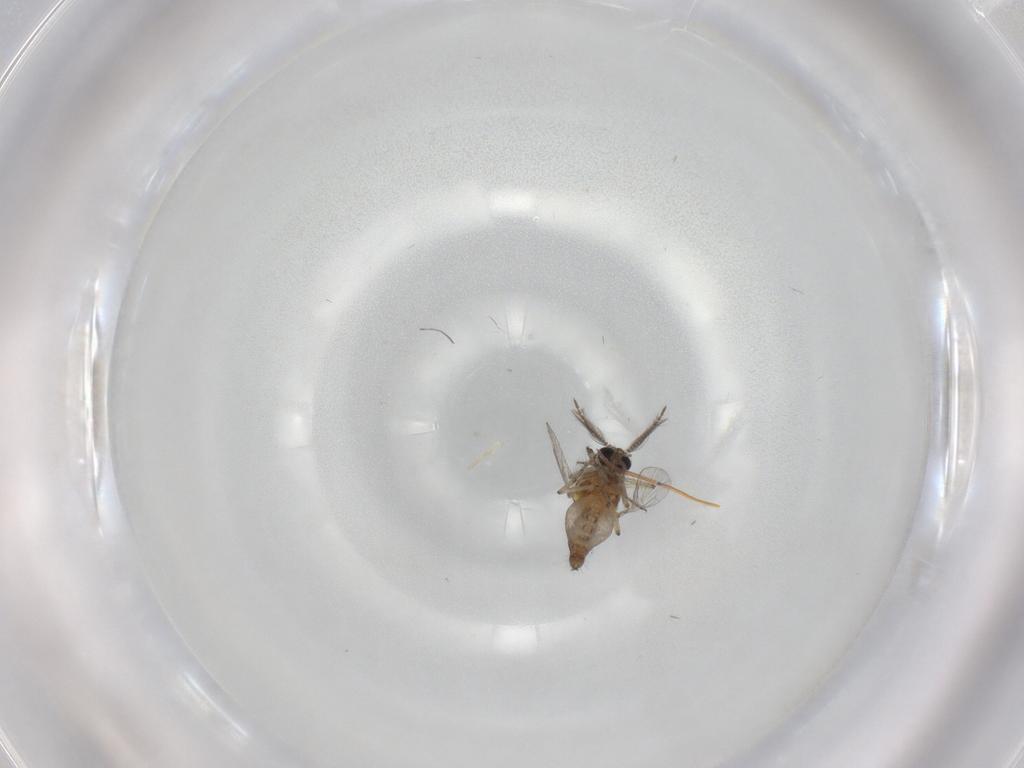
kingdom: Animalia
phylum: Arthropoda
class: Insecta
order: Diptera
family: Ceratopogonidae
